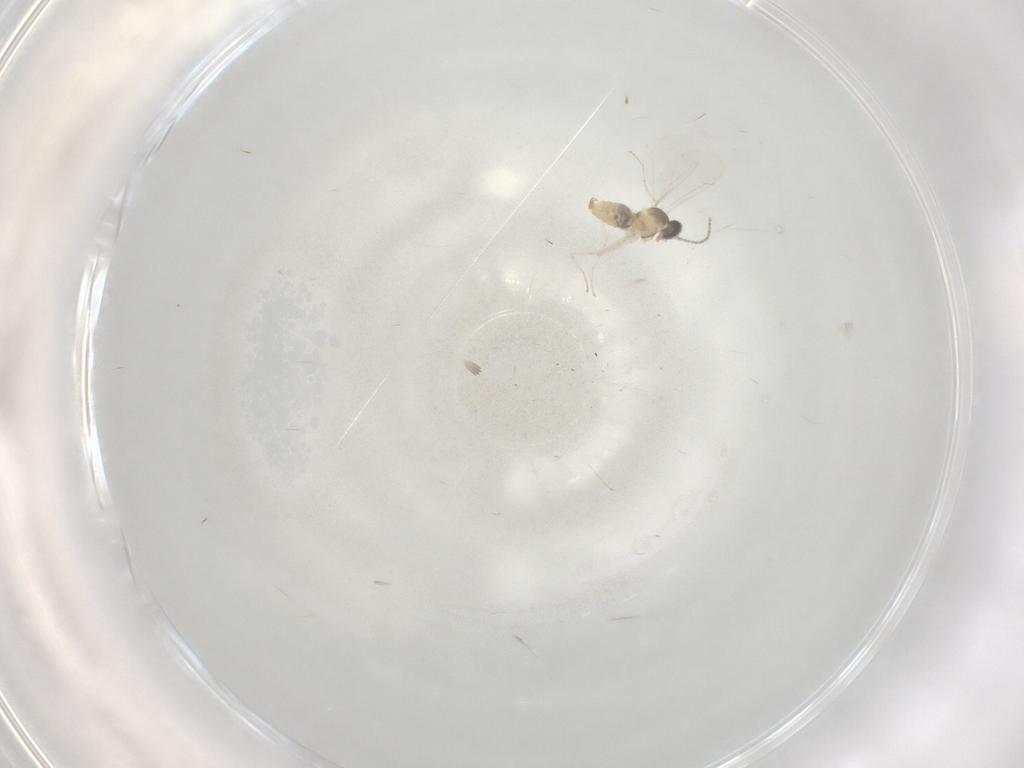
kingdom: Animalia
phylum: Arthropoda
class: Insecta
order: Diptera
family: Cecidomyiidae
